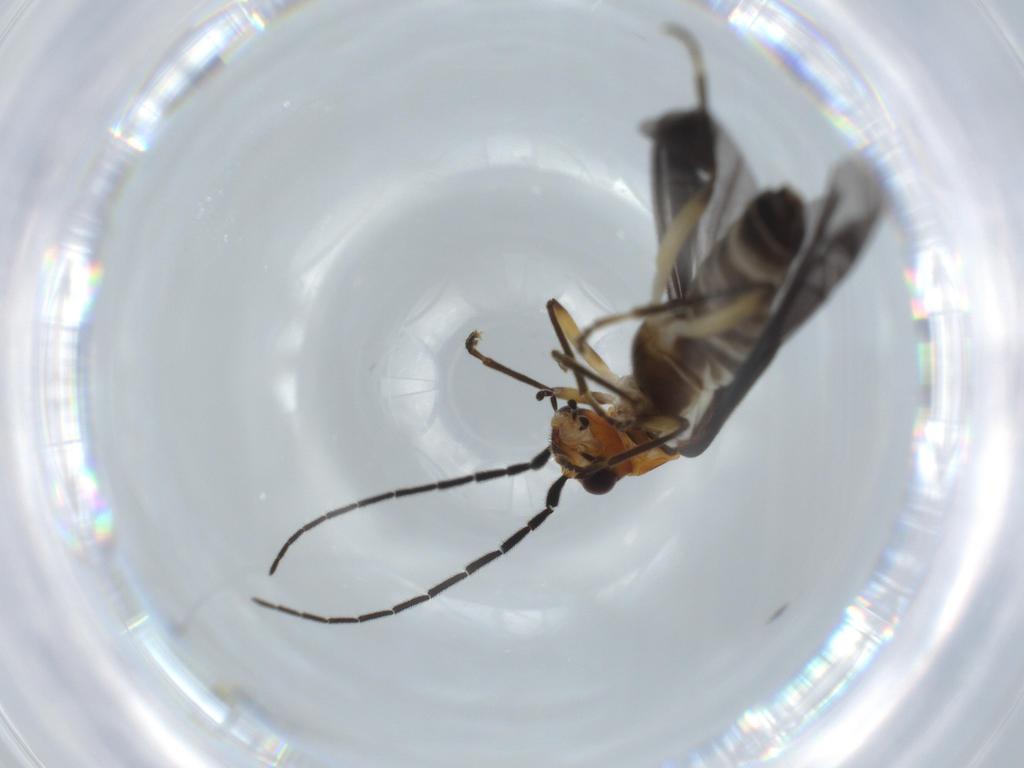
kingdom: Animalia
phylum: Arthropoda
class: Insecta
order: Coleoptera
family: Cantharidae
